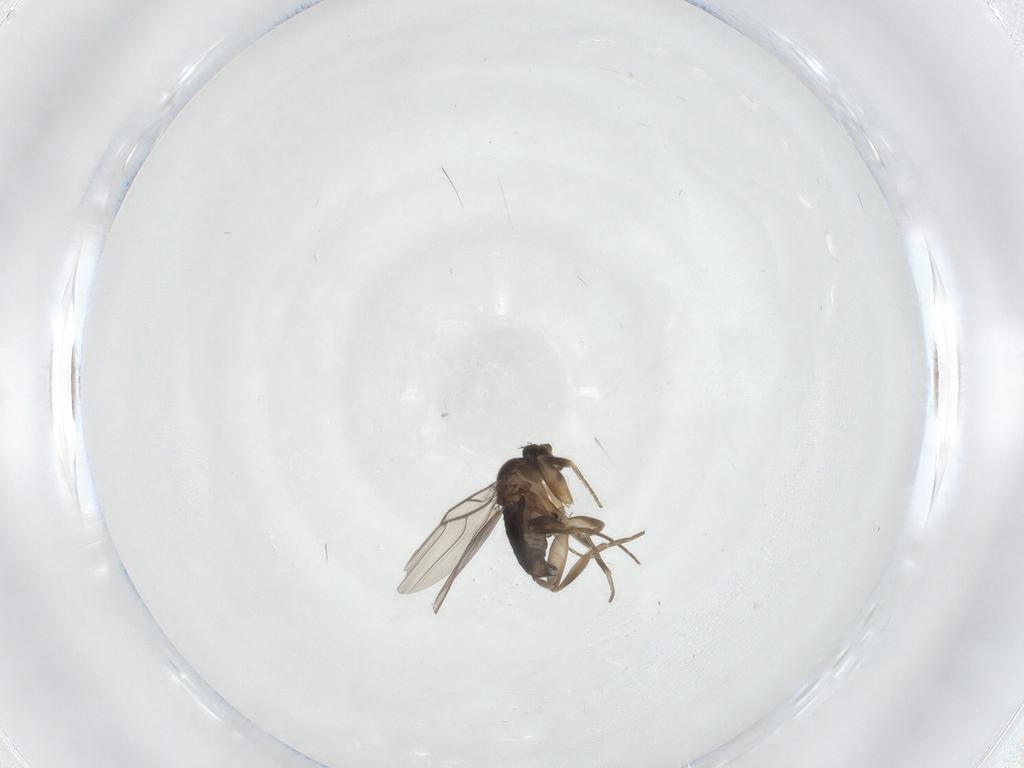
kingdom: Animalia
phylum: Arthropoda
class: Insecta
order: Diptera
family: Phoridae
